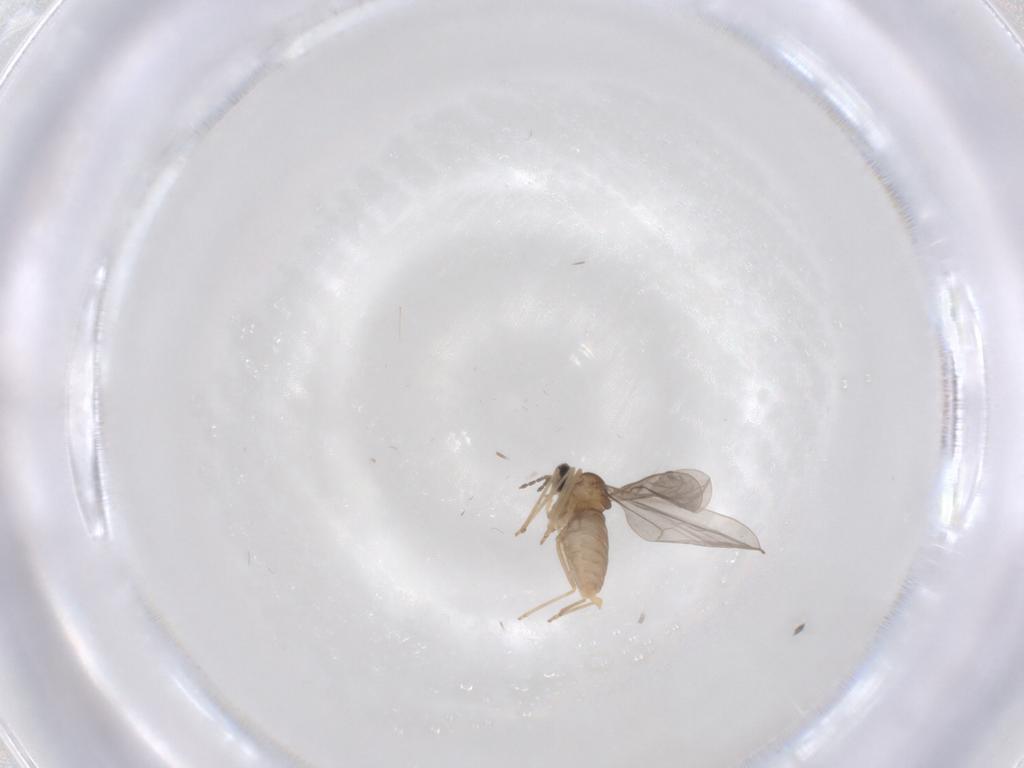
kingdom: Animalia
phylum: Arthropoda
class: Insecta
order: Diptera
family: Cecidomyiidae
